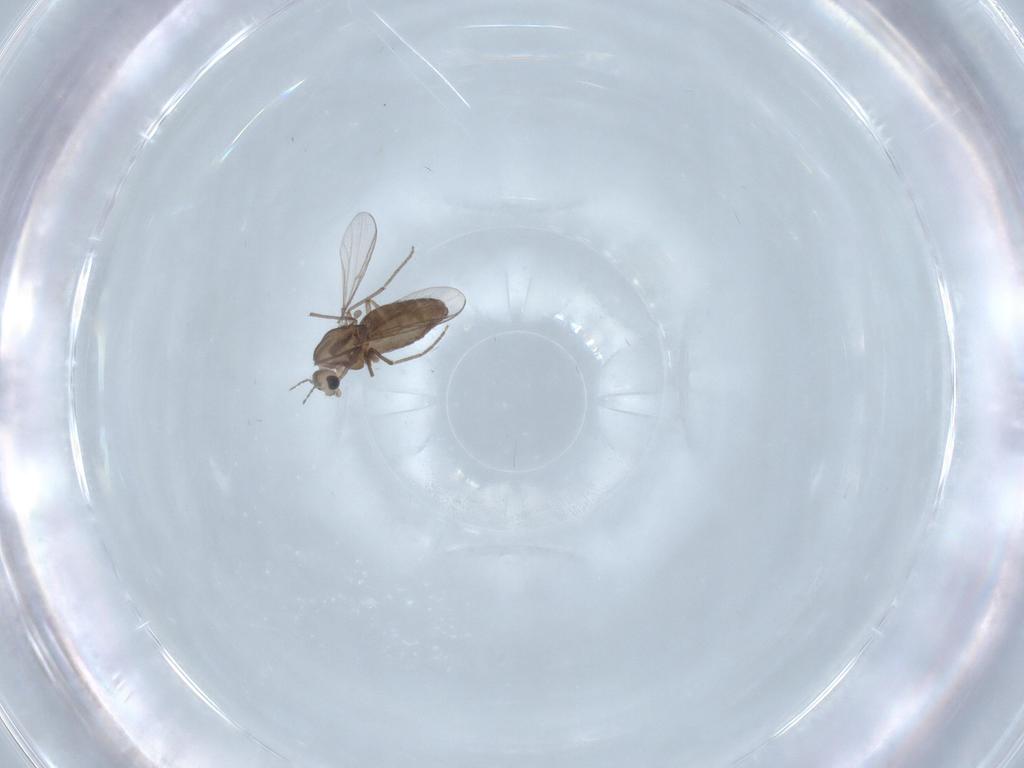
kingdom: Animalia
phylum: Arthropoda
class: Insecta
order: Diptera
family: Chironomidae
